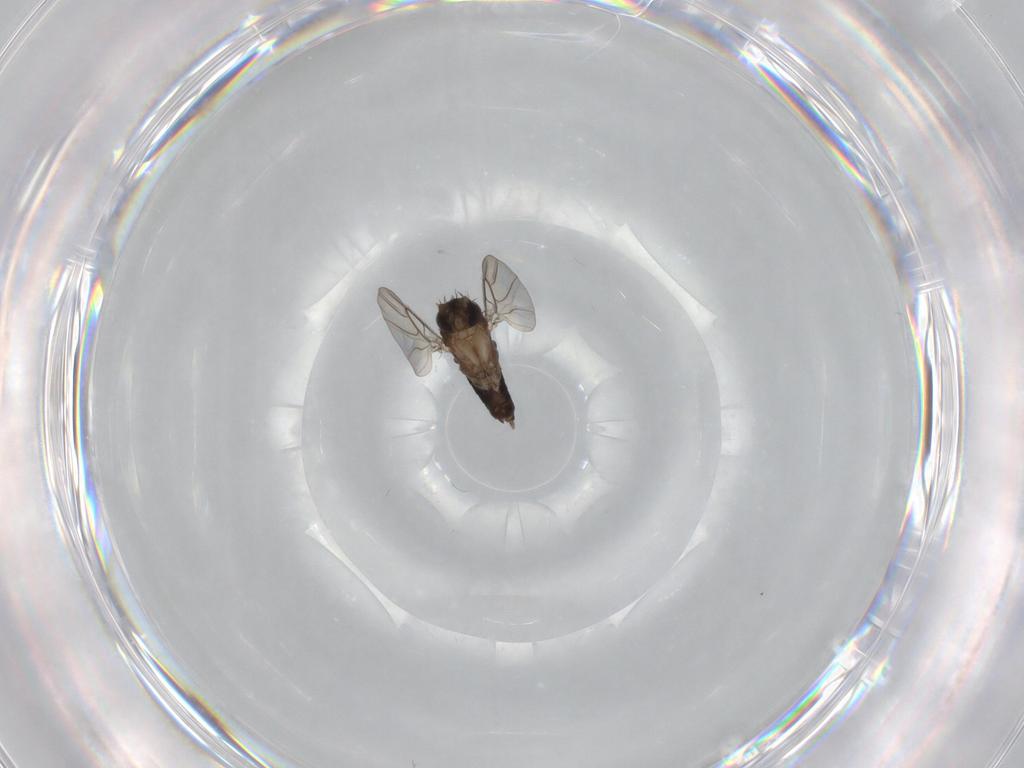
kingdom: Animalia
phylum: Arthropoda
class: Insecta
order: Diptera
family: Phoridae
